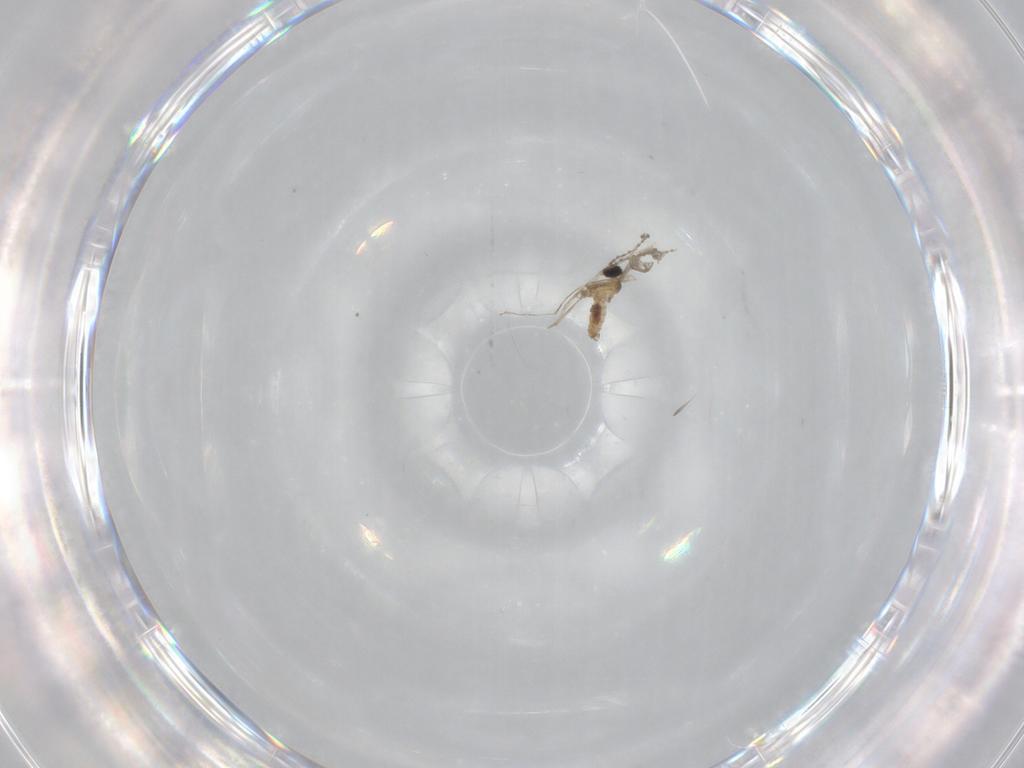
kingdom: Animalia
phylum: Arthropoda
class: Insecta
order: Diptera
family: Cecidomyiidae
